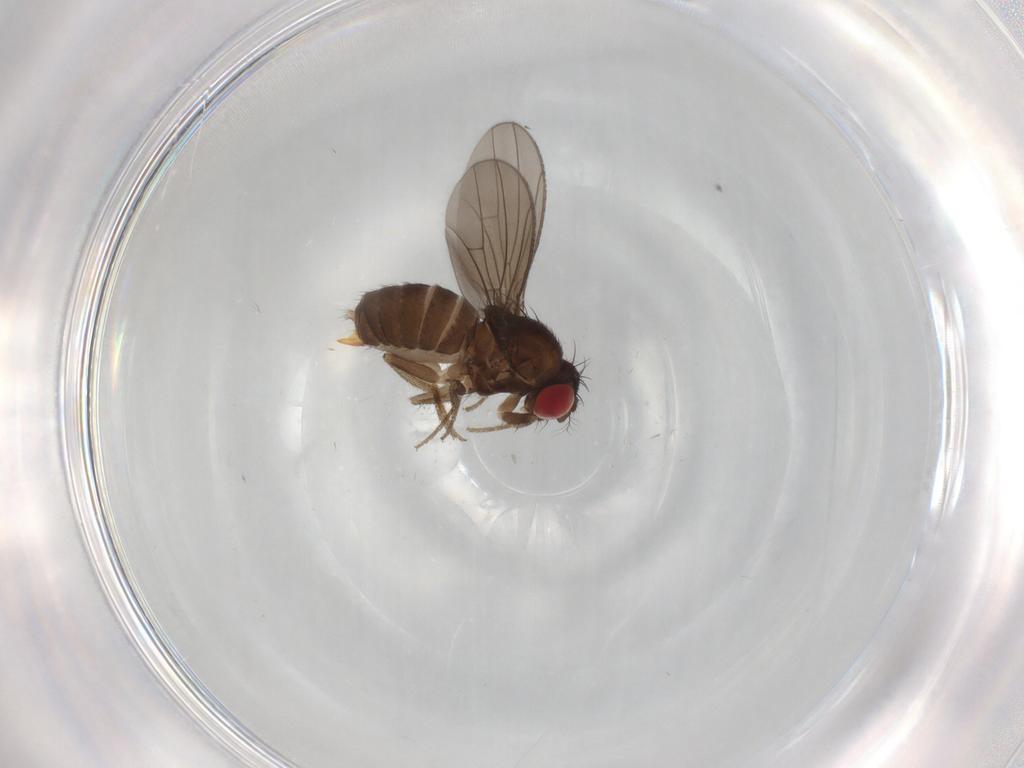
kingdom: Animalia
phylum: Arthropoda
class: Insecta
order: Diptera
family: Drosophilidae
